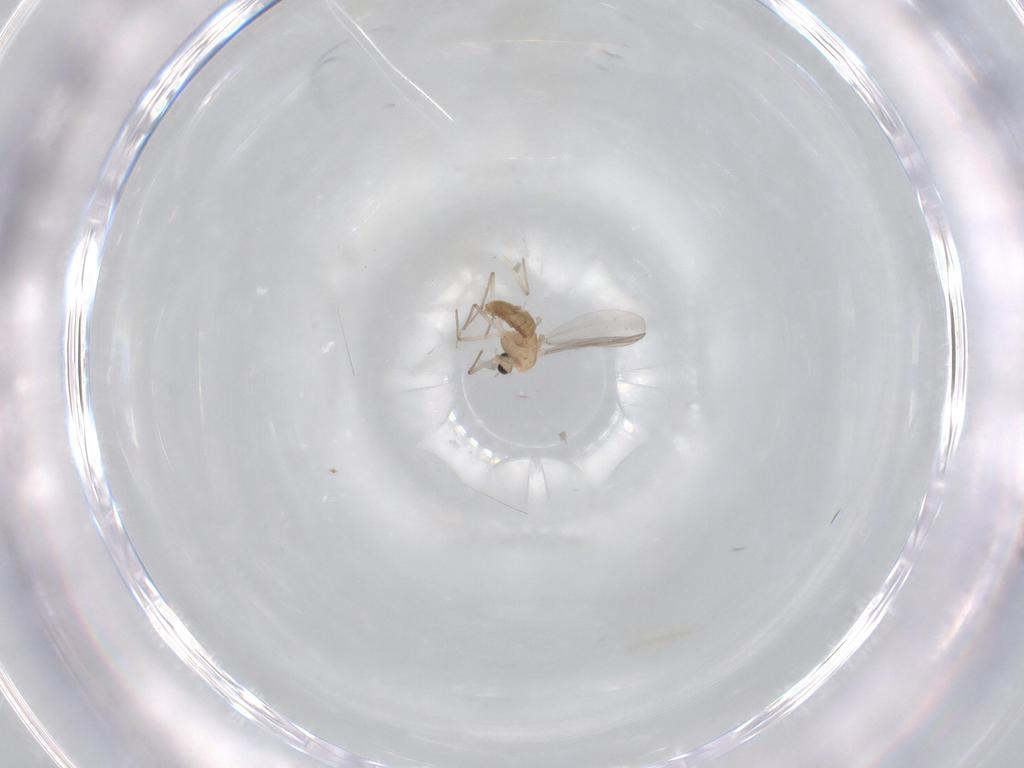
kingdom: Animalia
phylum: Arthropoda
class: Insecta
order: Diptera
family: Chironomidae
